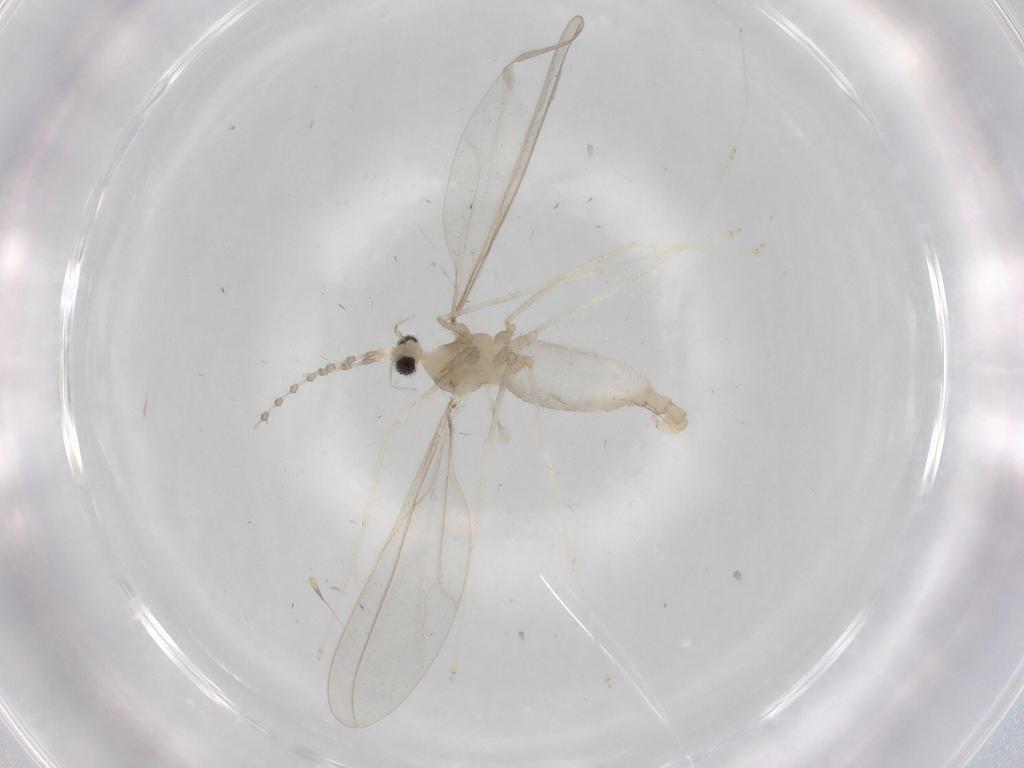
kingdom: Animalia
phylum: Arthropoda
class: Insecta
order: Diptera
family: Cecidomyiidae
